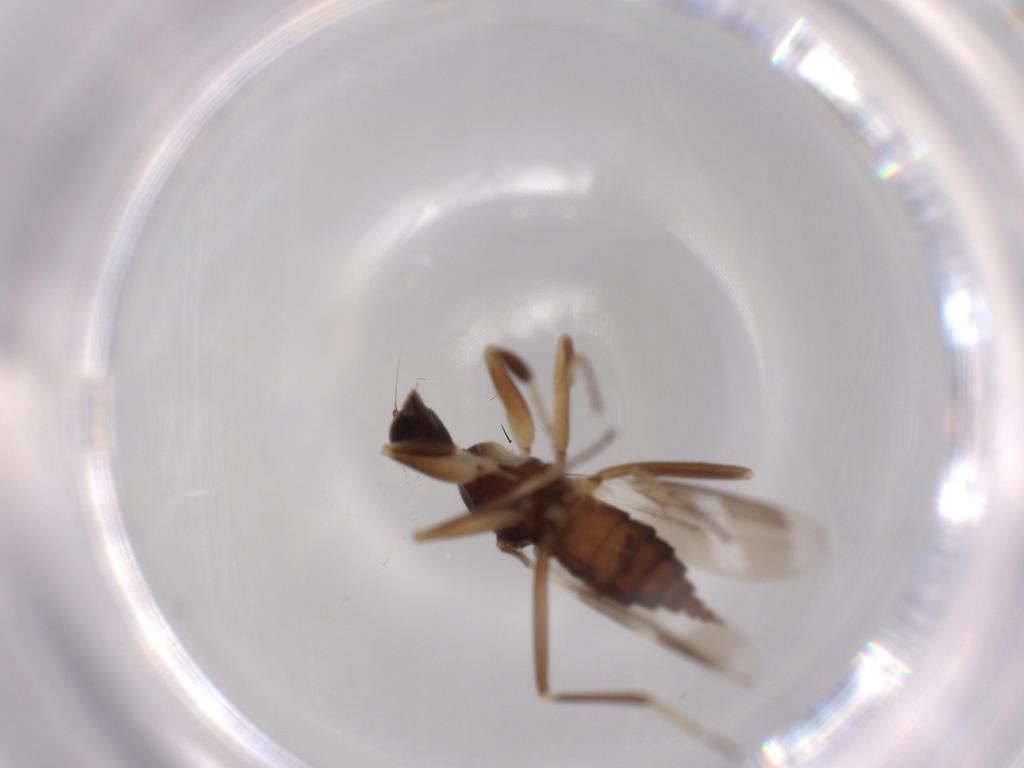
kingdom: Animalia
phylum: Arthropoda
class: Insecta
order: Diptera
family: Hybotidae
